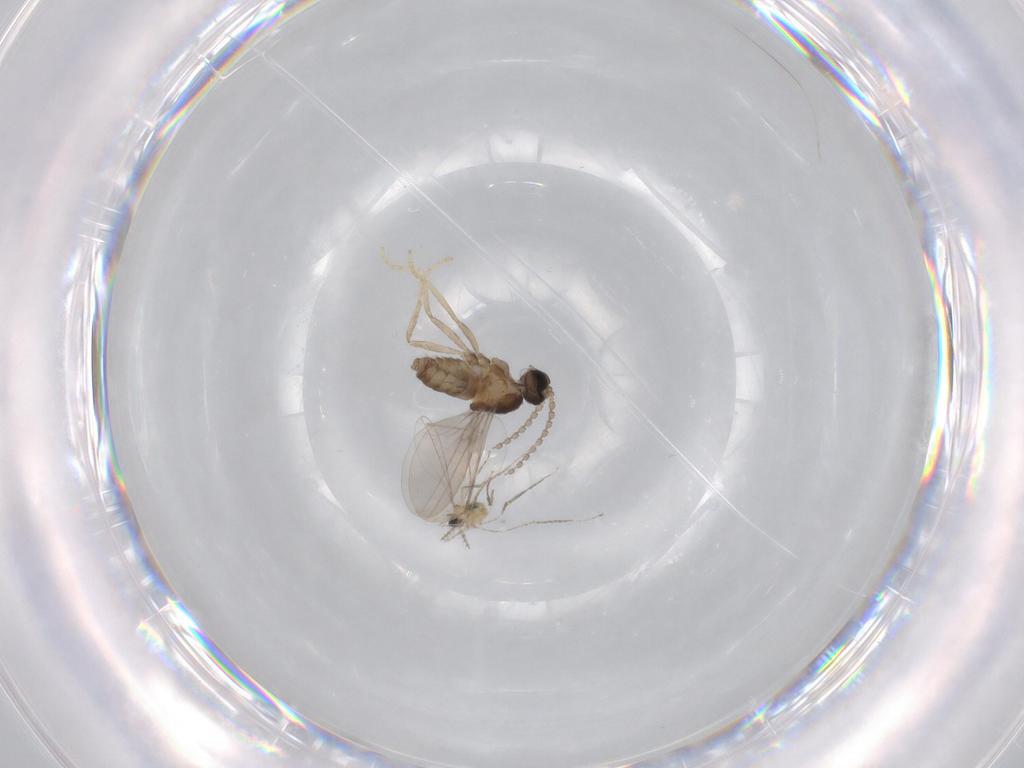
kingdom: Animalia
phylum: Arthropoda
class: Insecta
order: Diptera
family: Cecidomyiidae
